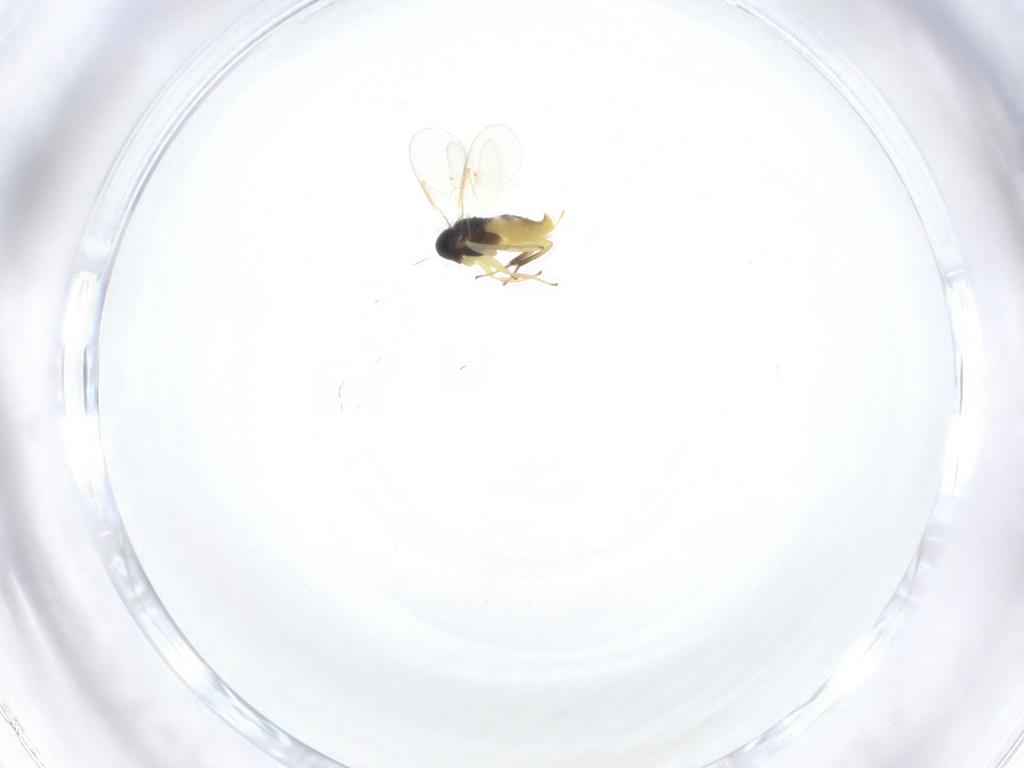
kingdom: Animalia
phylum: Arthropoda
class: Insecta
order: Hymenoptera
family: Aphelinidae
